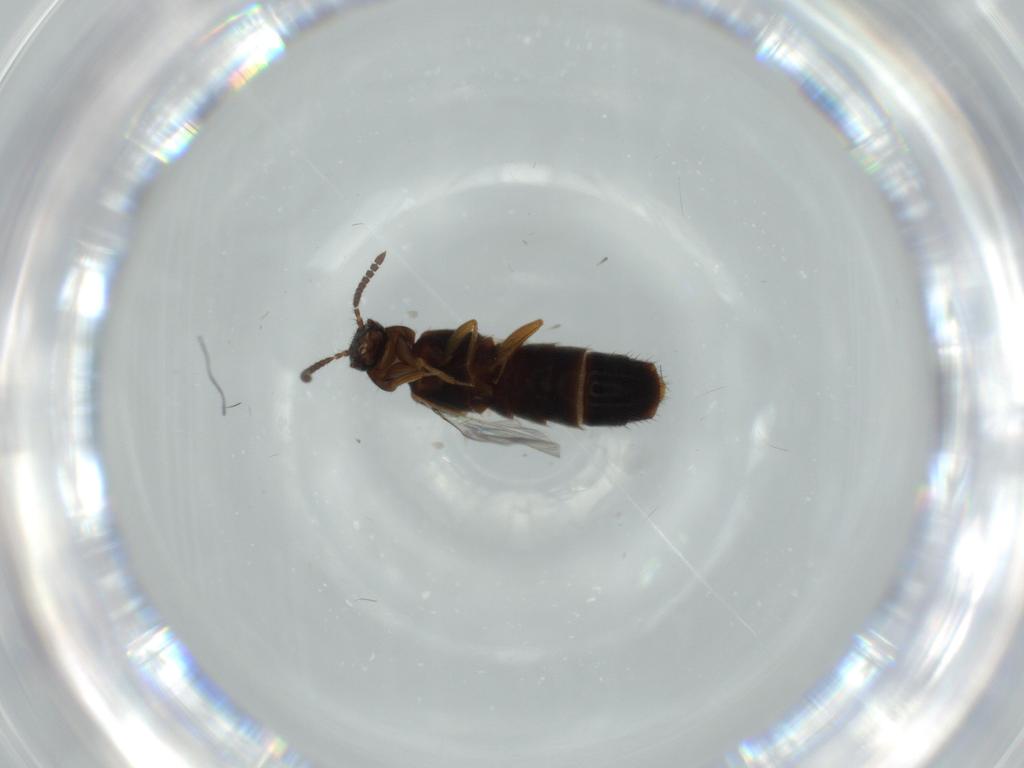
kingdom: Animalia
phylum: Arthropoda
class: Insecta
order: Coleoptera
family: Staphylinidae
